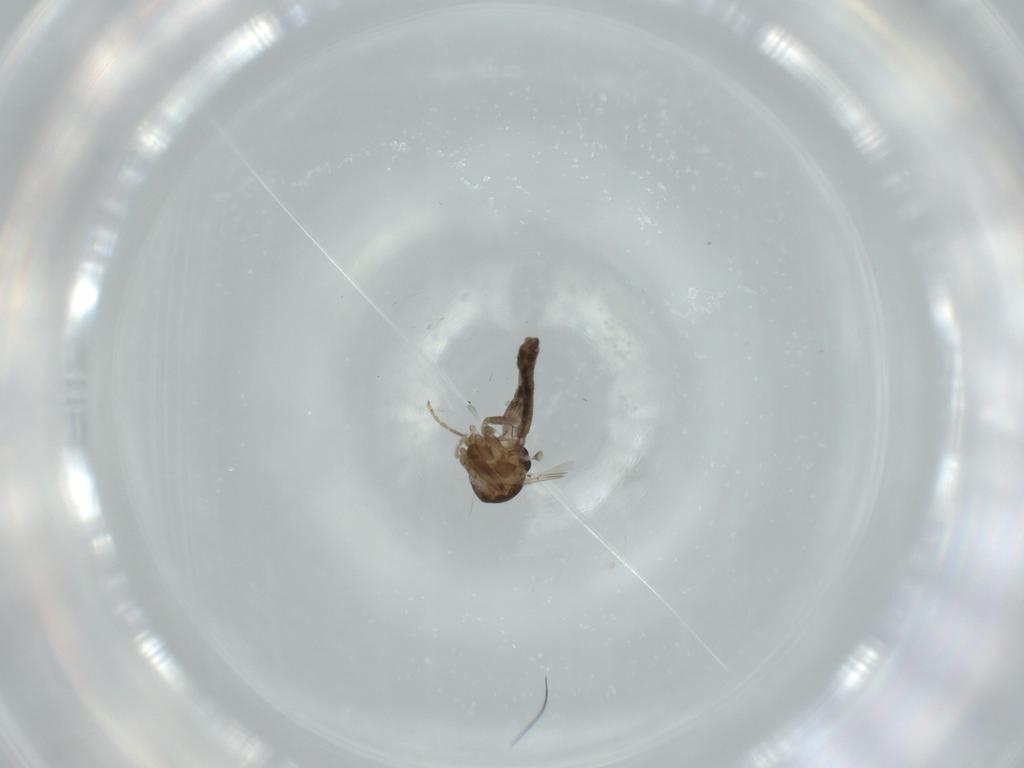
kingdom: Animalia
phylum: Arthropoda
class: Insecta
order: Diptera
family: Ceratopogonidae
